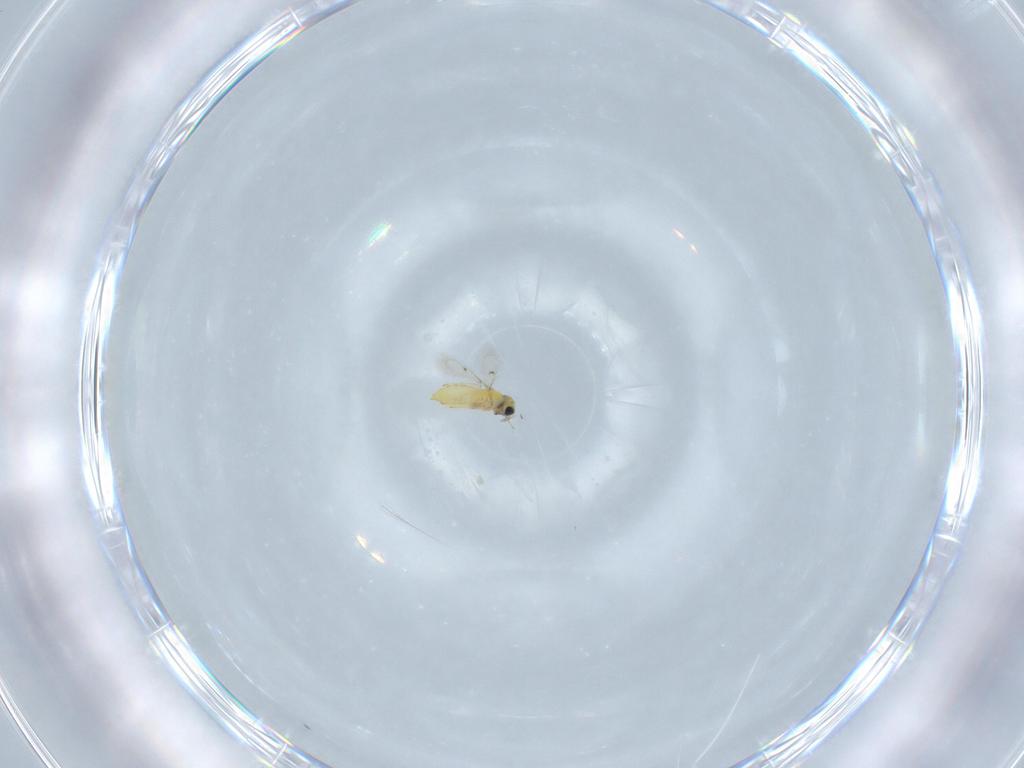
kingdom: Animalia
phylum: Arthropoda
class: Insecta
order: Hymenoptera
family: Trichogrammatidae
